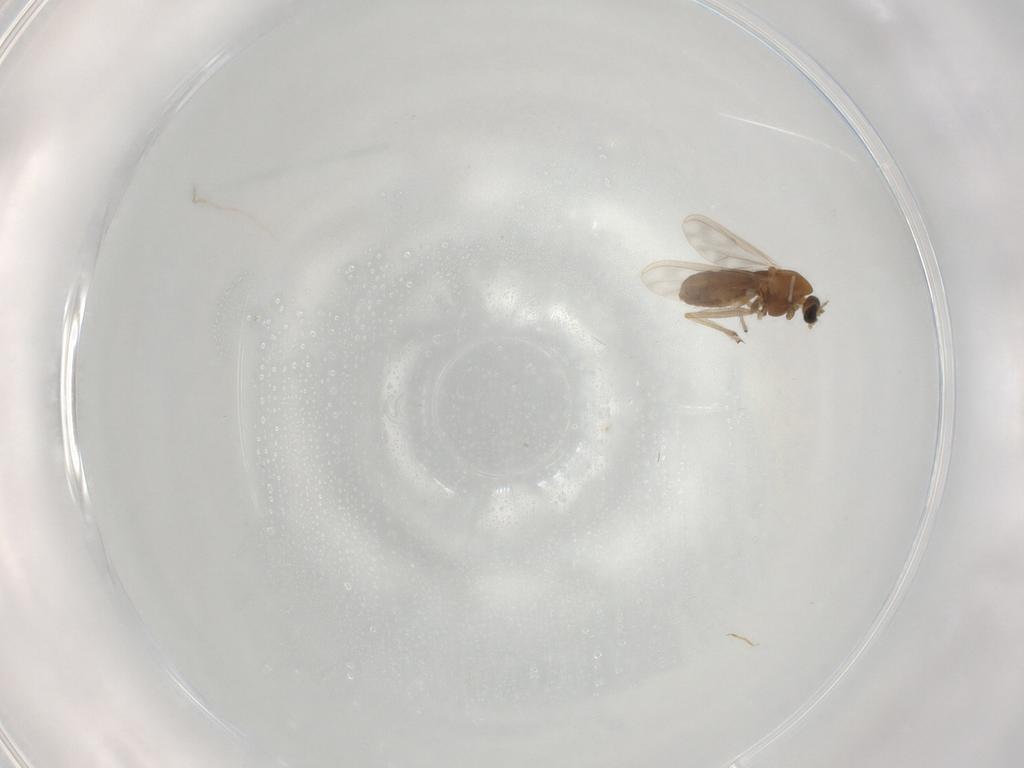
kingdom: Animalia
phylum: Arthropoda
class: Insecta
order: Diptera
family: Chironomidae
